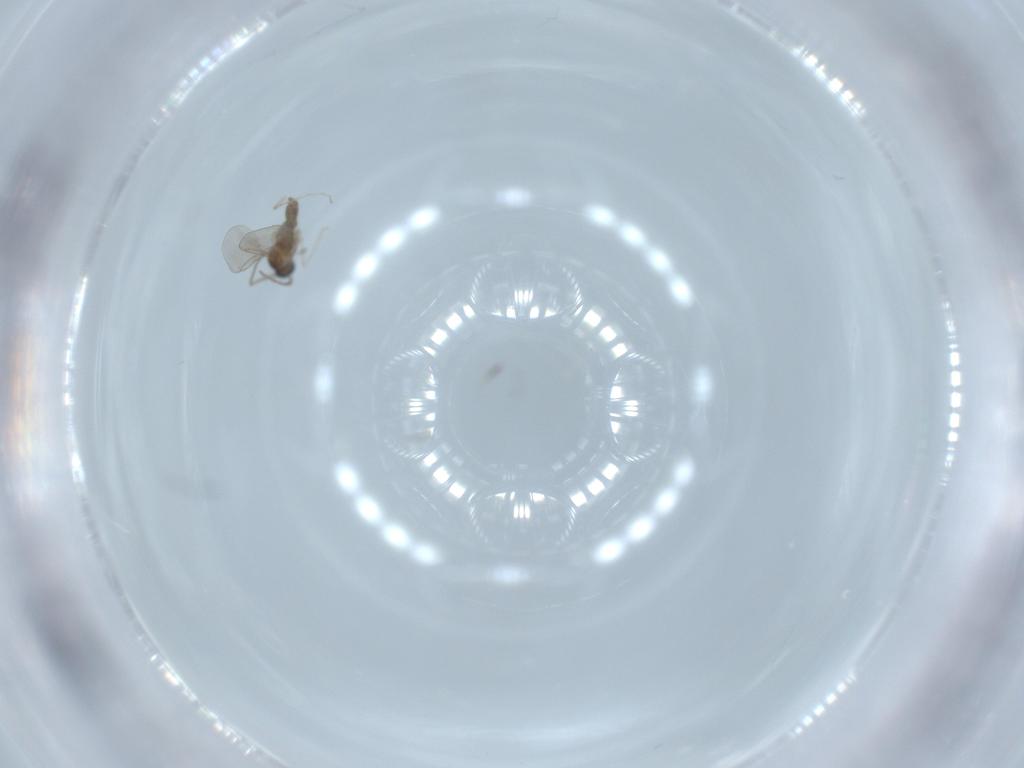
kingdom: Animalia
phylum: Arthropoda
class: Insecta
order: Diptera
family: Cecidomyiidae
